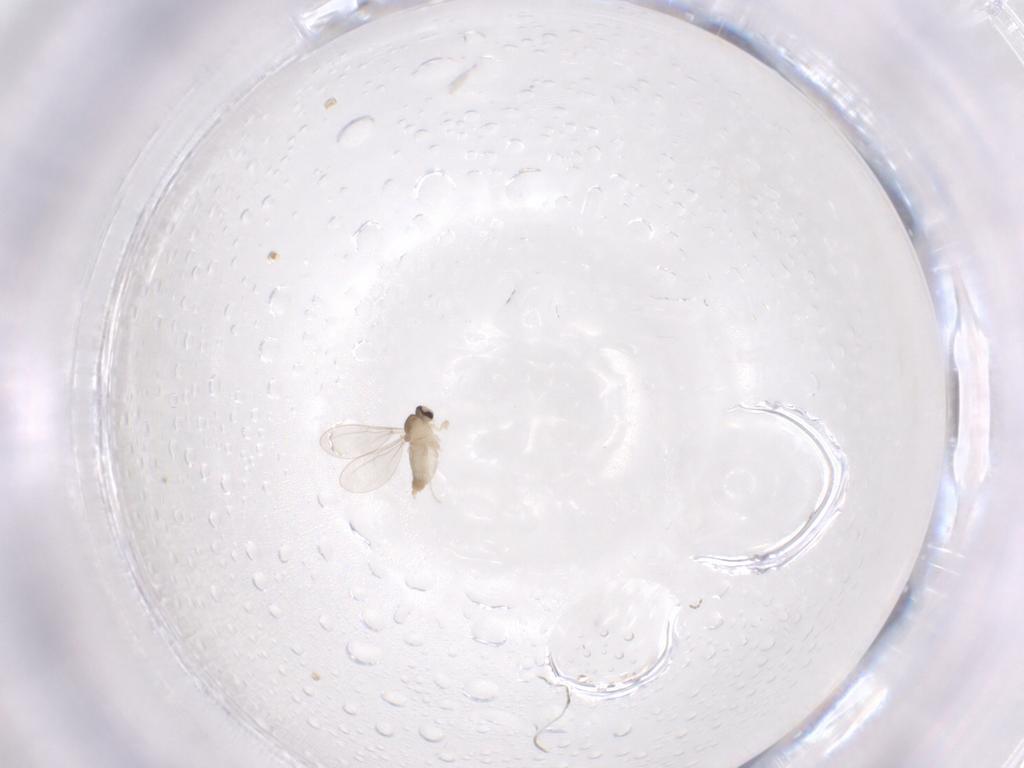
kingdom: Animalia
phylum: Arthropoda
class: Insecta
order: Diptera
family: Cecidomyiidae
